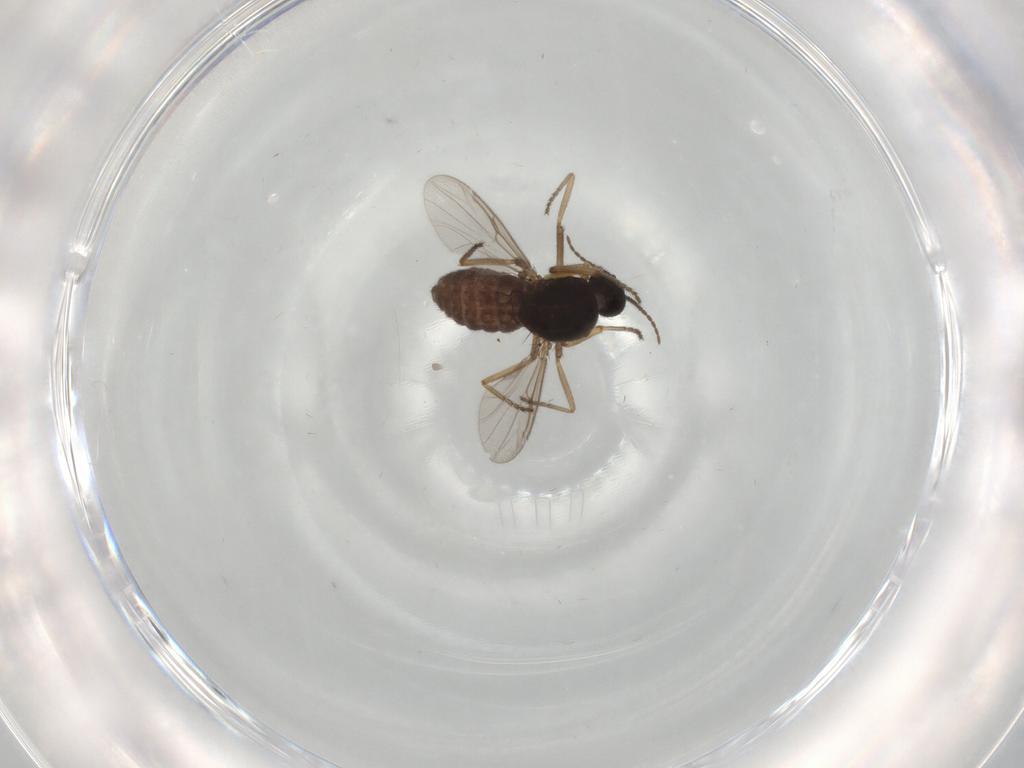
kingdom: Animalia
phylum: Arthropoda
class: Insecta
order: Diptera
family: Ceratopogonidae
